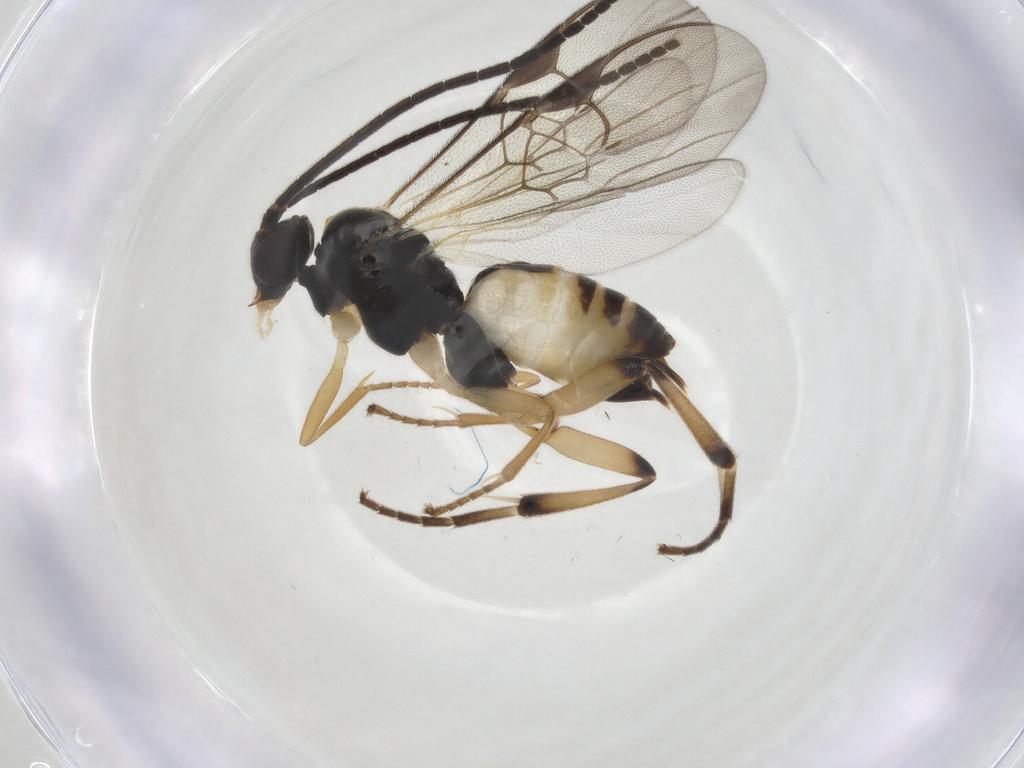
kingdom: Animalia
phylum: Arthropoda
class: Insecta
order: Hymenoptera
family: Braconidae
